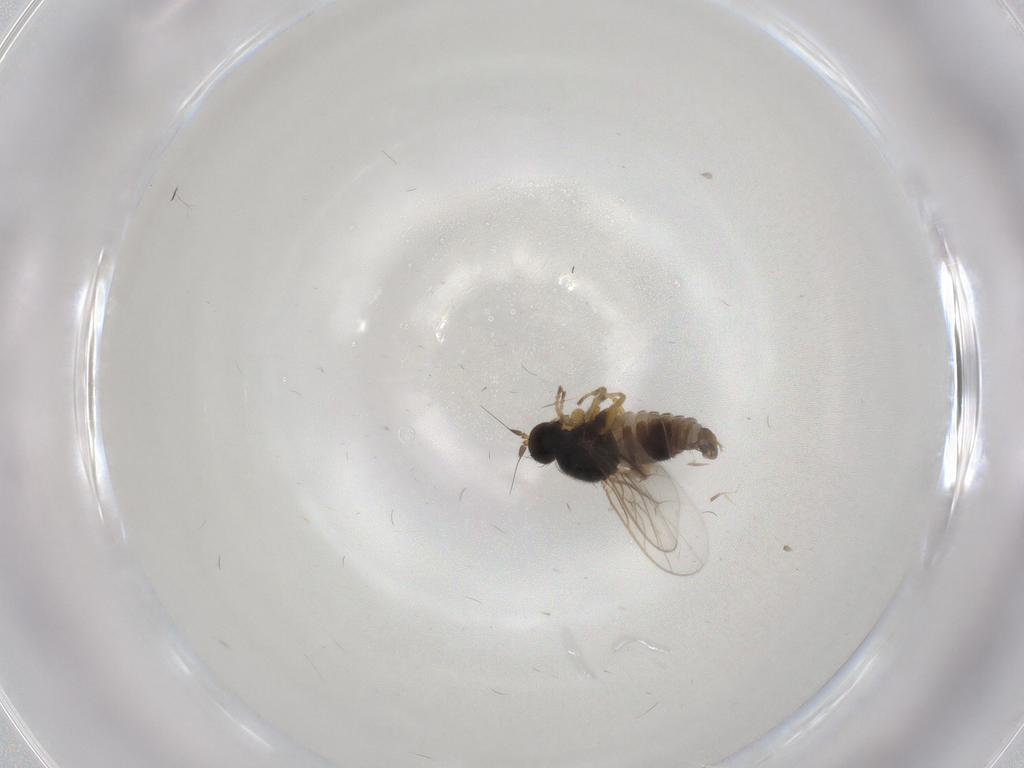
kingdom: Animalia
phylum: Arthropoda
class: Insecta
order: Diptera
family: Hybotidae
